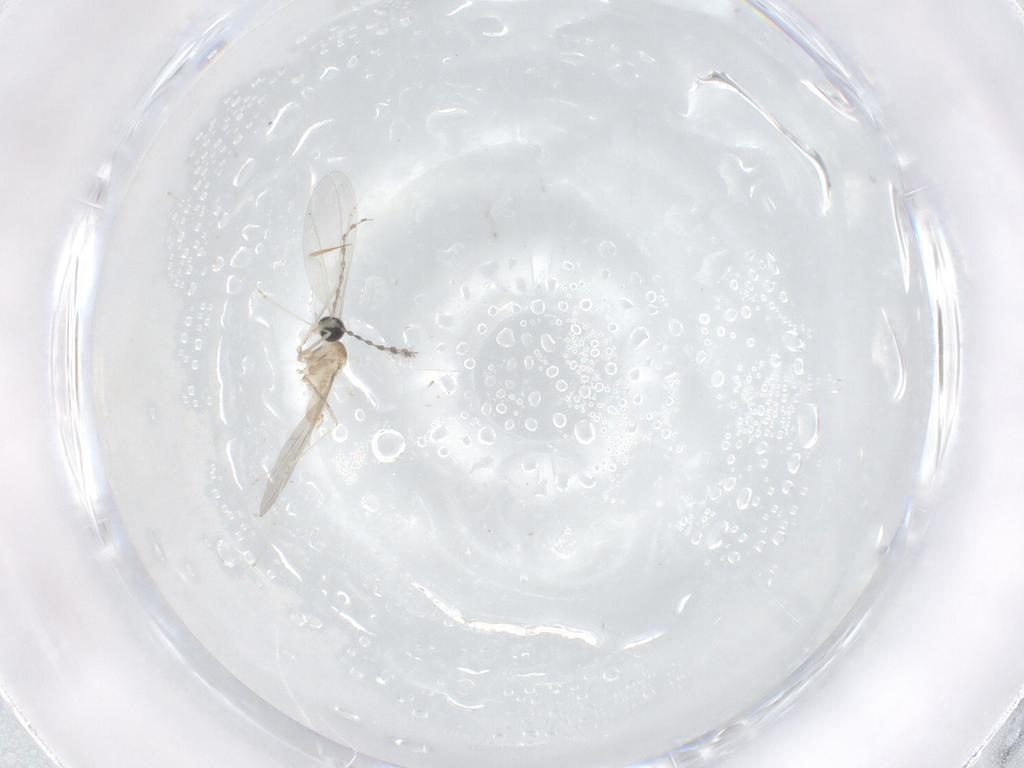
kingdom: Animalia
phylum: Arthropoda
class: Insecta
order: Diptera
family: Cecidomyiidae
